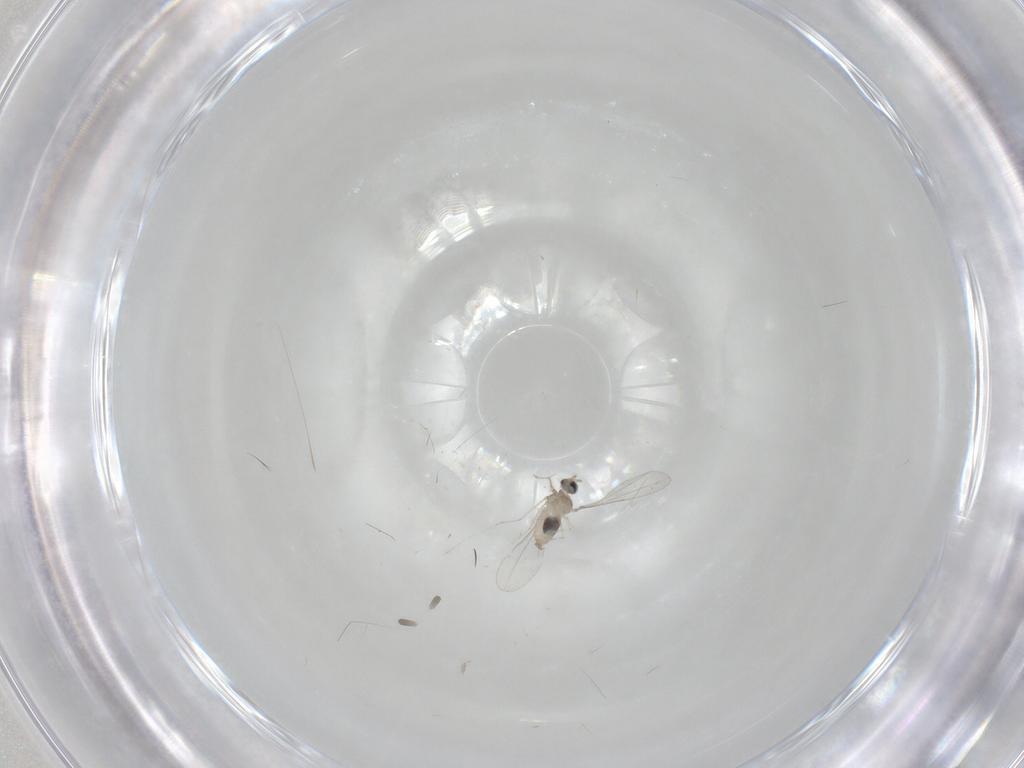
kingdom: Animalia
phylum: Arthropoda
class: Insecta
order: Diptera
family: Cecidomyiidae
